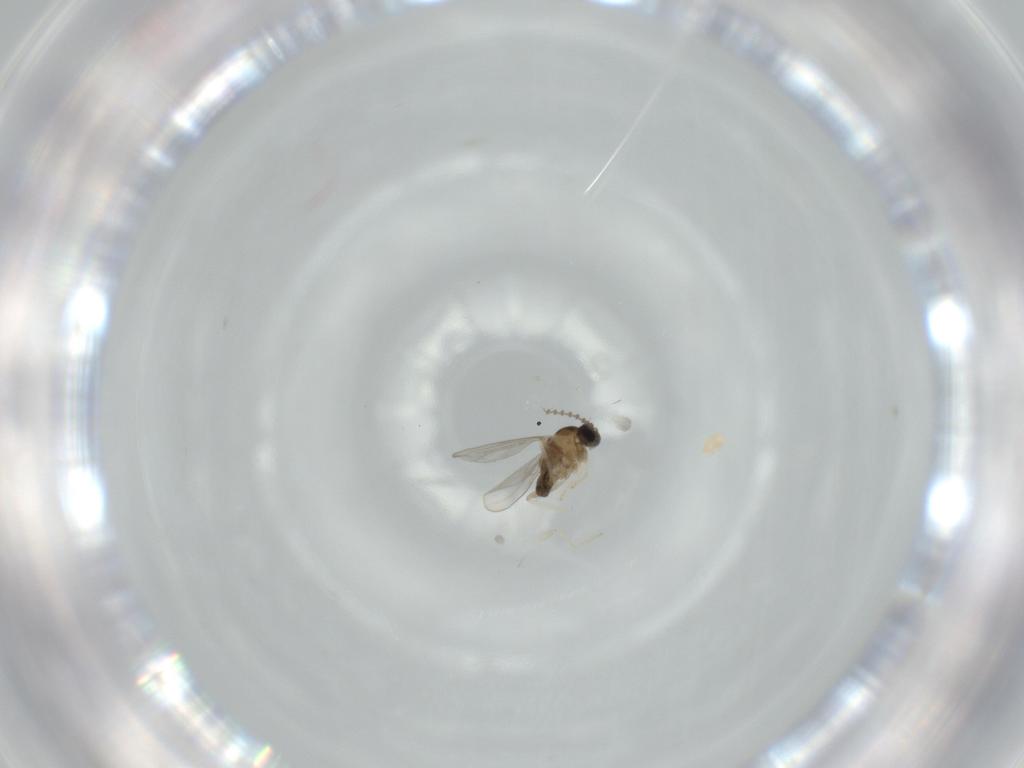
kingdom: Animalia
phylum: Arthropoda
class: Insecta
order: Diptera
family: Cecidomyiidae
